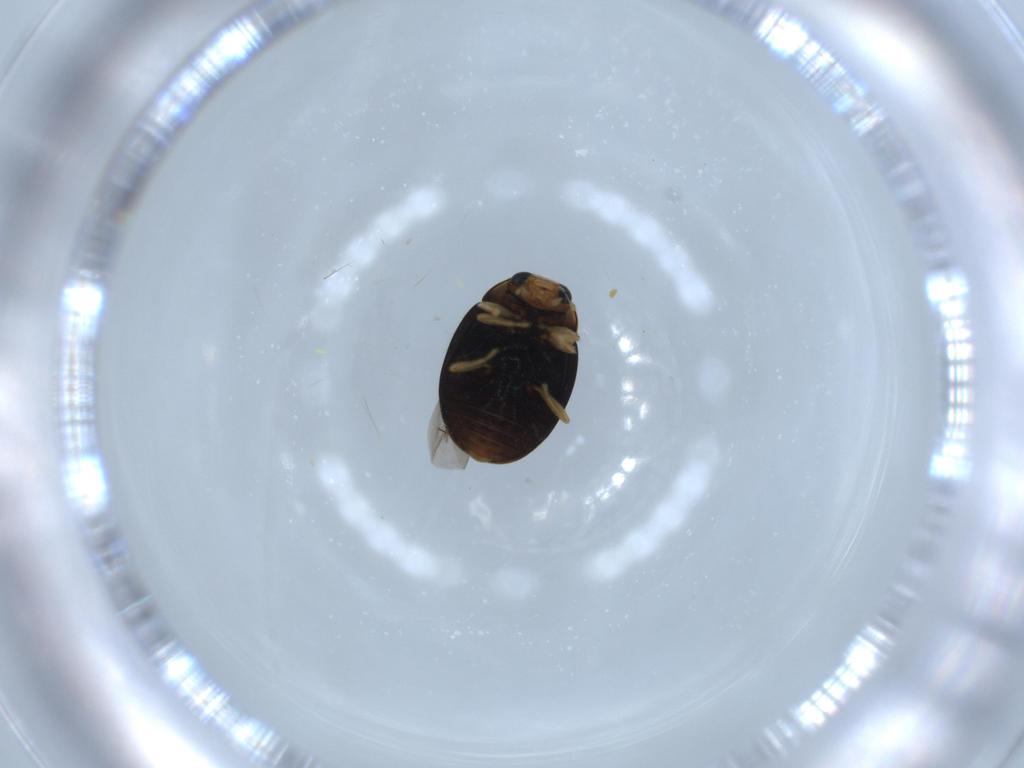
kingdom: Animalia
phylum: Arthropoda
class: Insecta
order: Coleoptera
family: Coccinellidae
